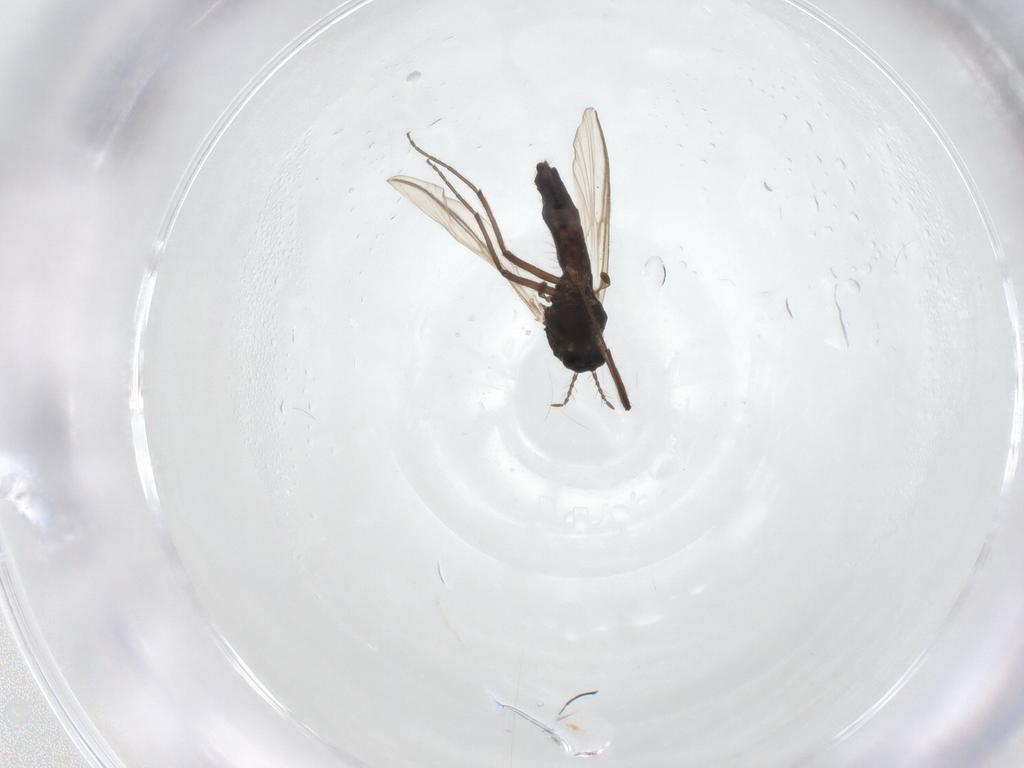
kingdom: Animalia
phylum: Arthropoda
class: Insecta
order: Diptera
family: Chironomidae
